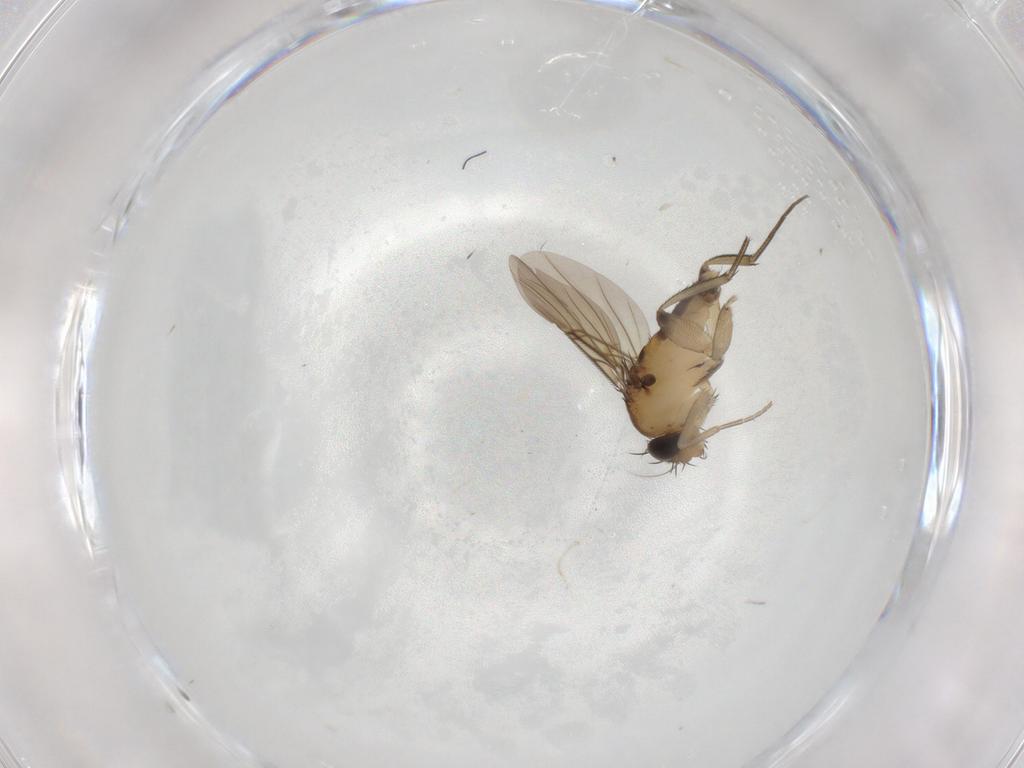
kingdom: Animalia
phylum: Arthropoda
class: Insecta
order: Diptera
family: Phoridae
